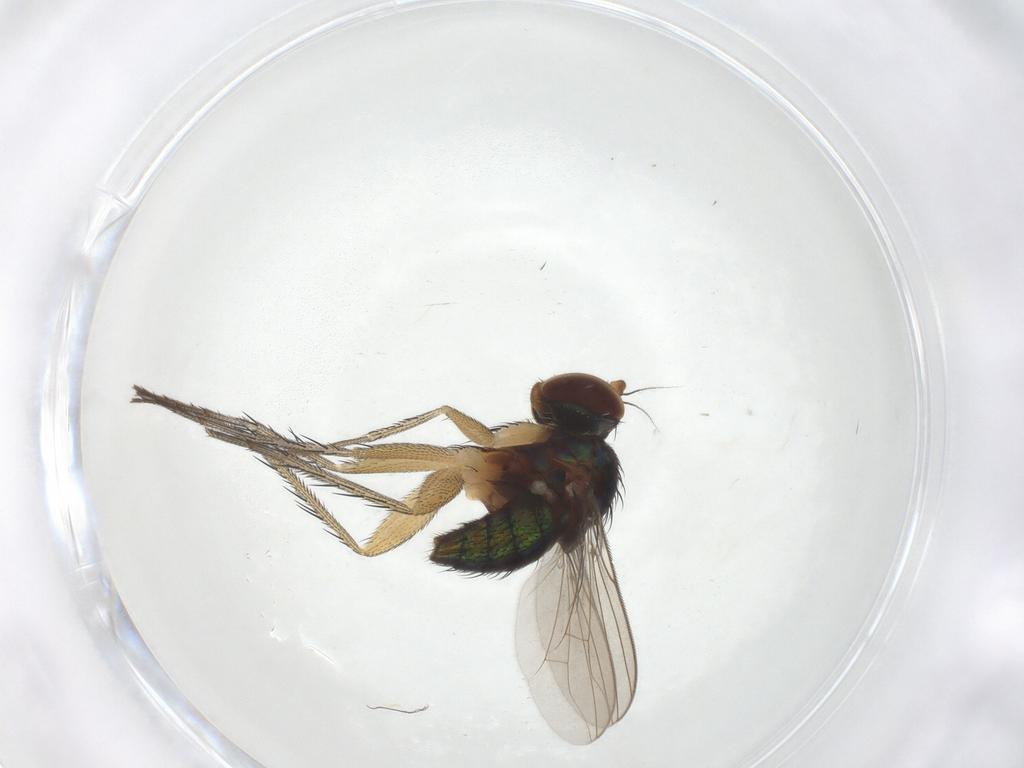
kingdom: Animalia
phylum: Arthropoda
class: Insecta
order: Diptera
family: Dolichopodidae
